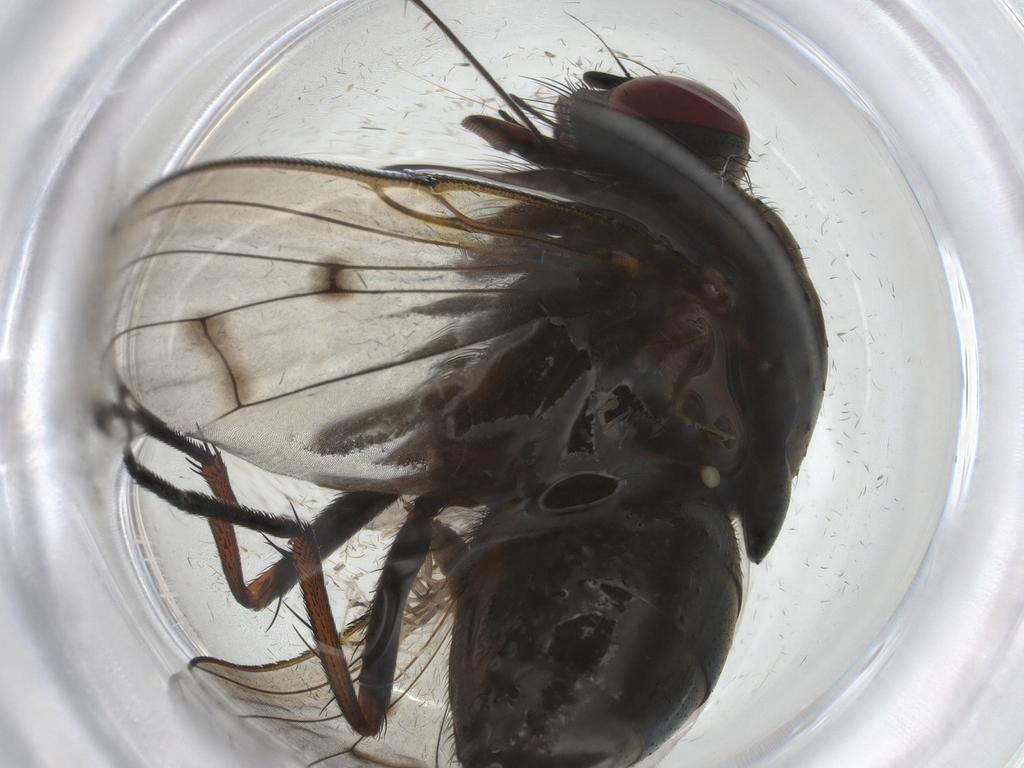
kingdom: Animalia
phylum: Arthropoda
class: Insecta
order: Diptera
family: Muscidae
